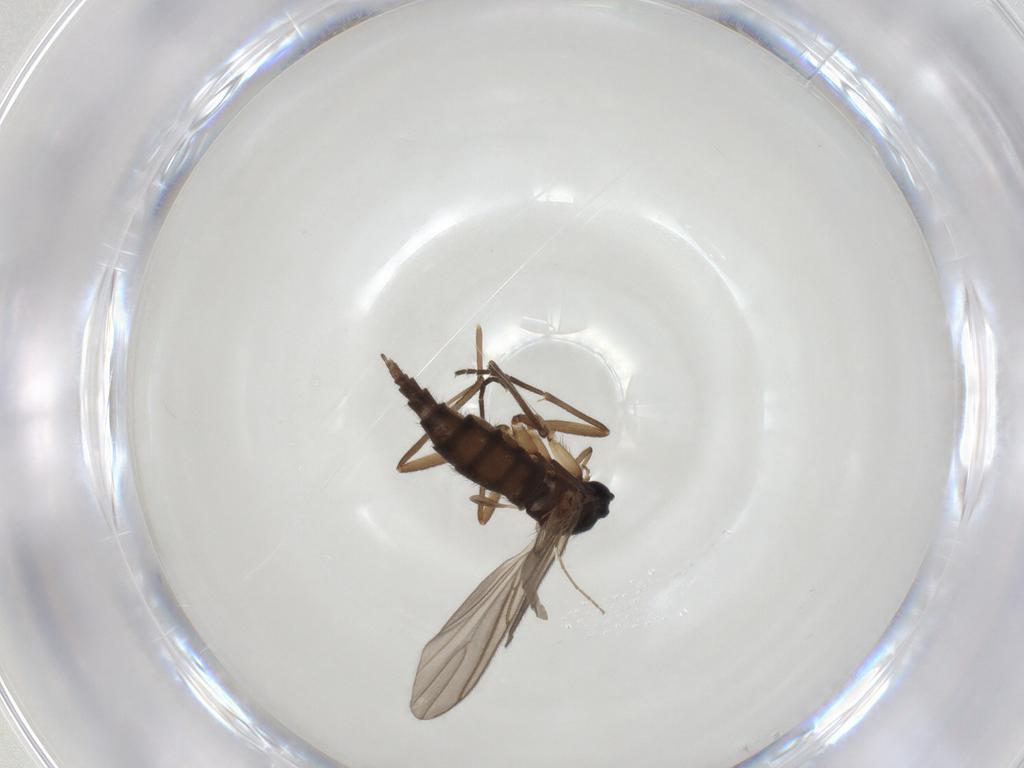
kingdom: Animalia
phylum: Arthropoda
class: Insecta
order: Diptera
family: Sciaridae
